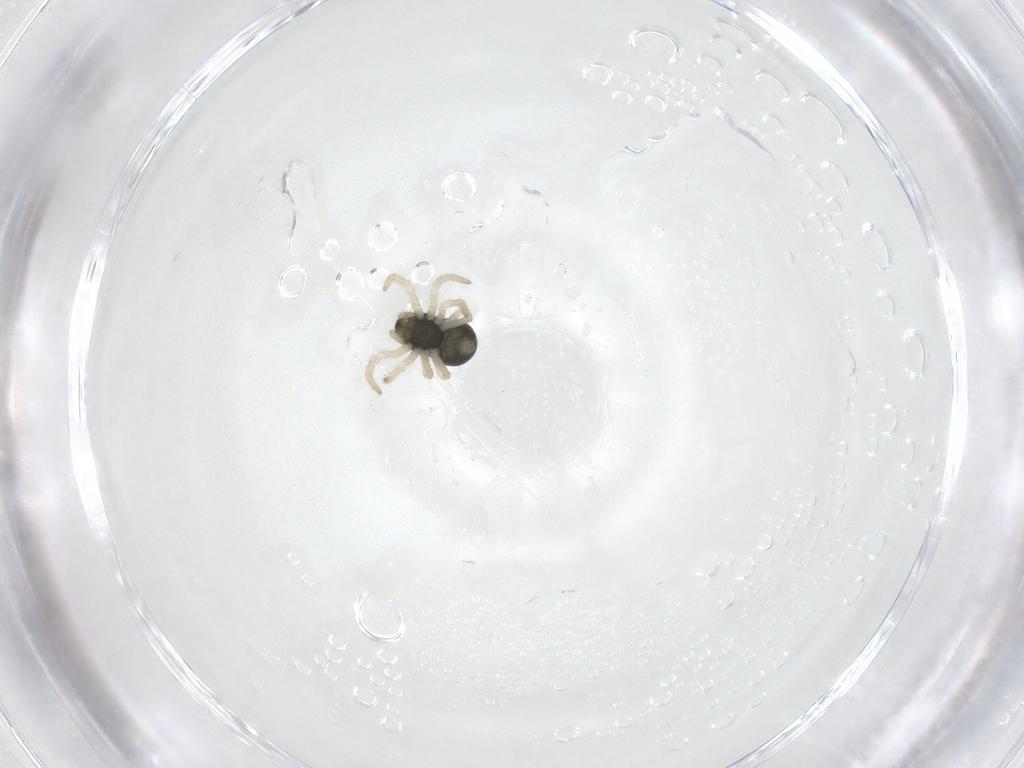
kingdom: Animalia
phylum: Arthropoda
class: Arachnida
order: Araneae
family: Theridiidae
